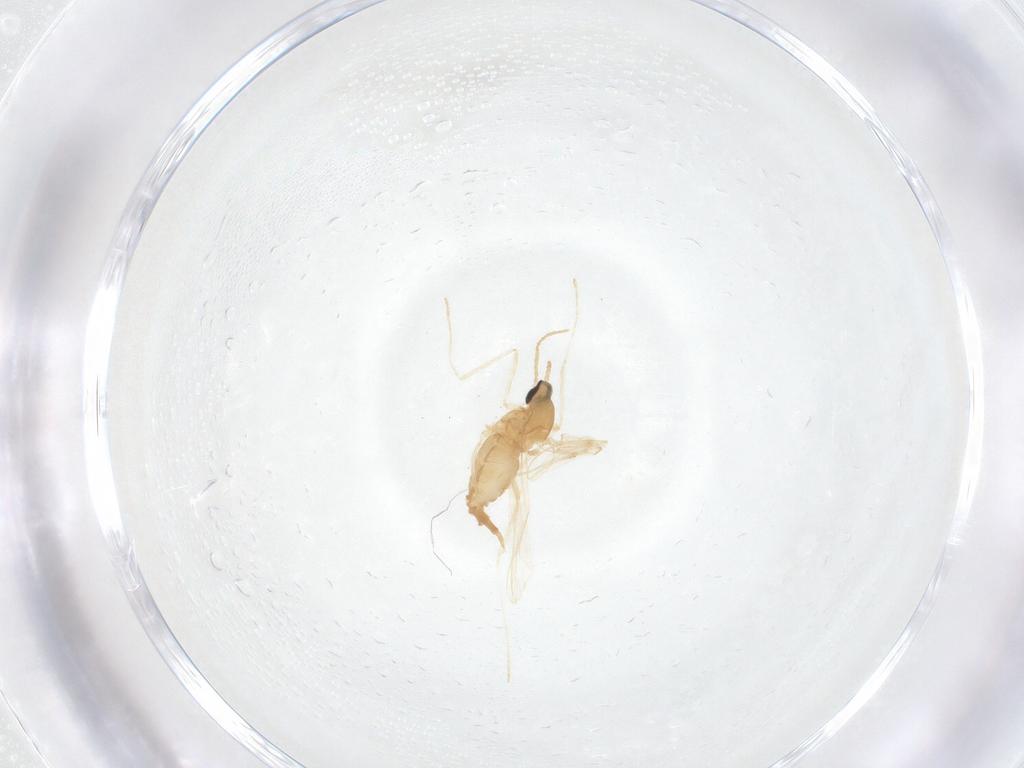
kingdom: Animalia
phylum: Arthropoda
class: Insecta
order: Diptera
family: Cecidomyiidae
